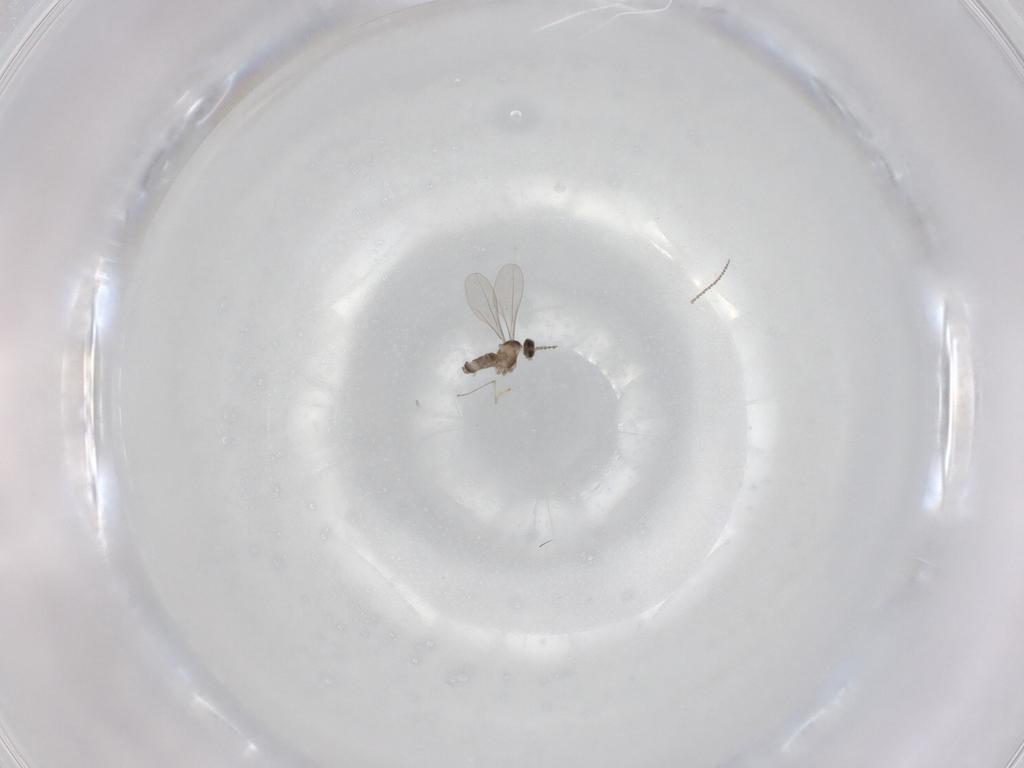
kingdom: Animalia
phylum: Arthropoda
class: Insecta
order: Diptera
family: Cecidomyiidae
